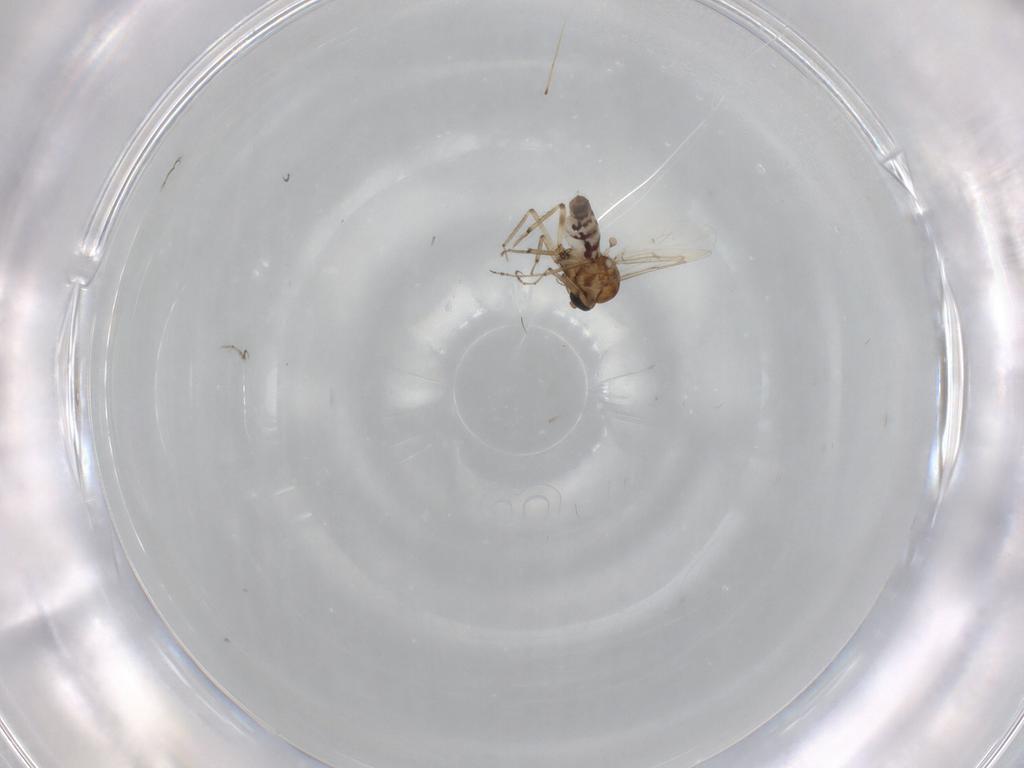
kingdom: Animalia
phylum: Arthropoda
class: Insecta
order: Diptera
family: Ceratopogonidae
